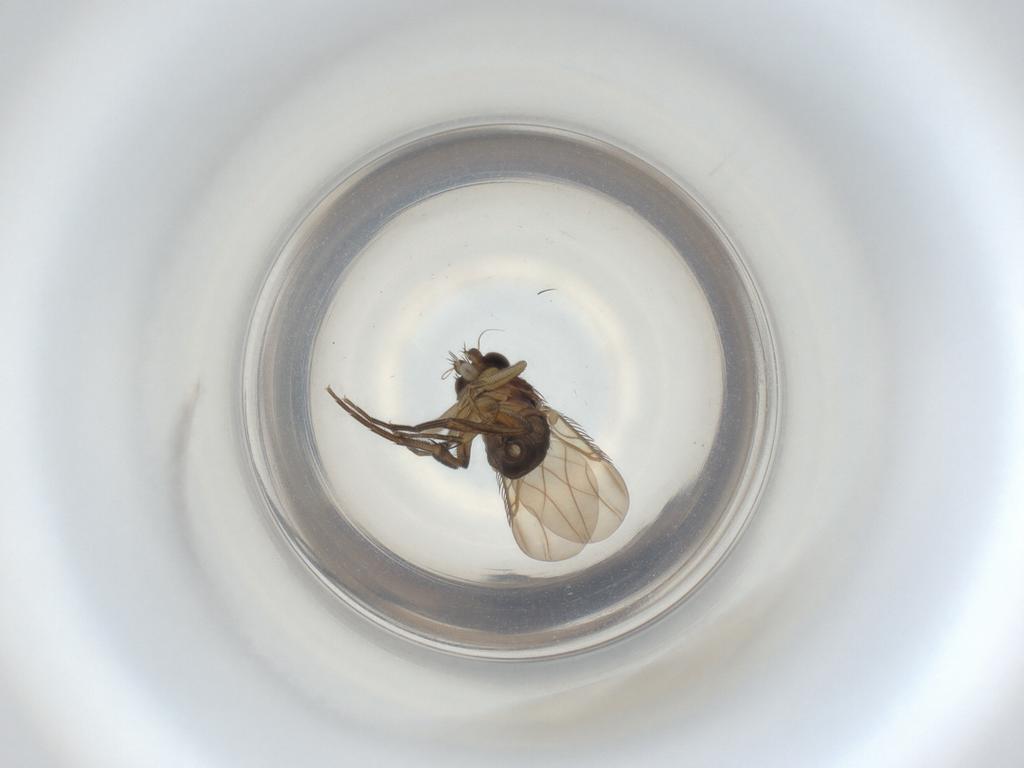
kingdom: Animalia
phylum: Arthropoda
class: Insecta
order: Diptera
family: Phoridae
